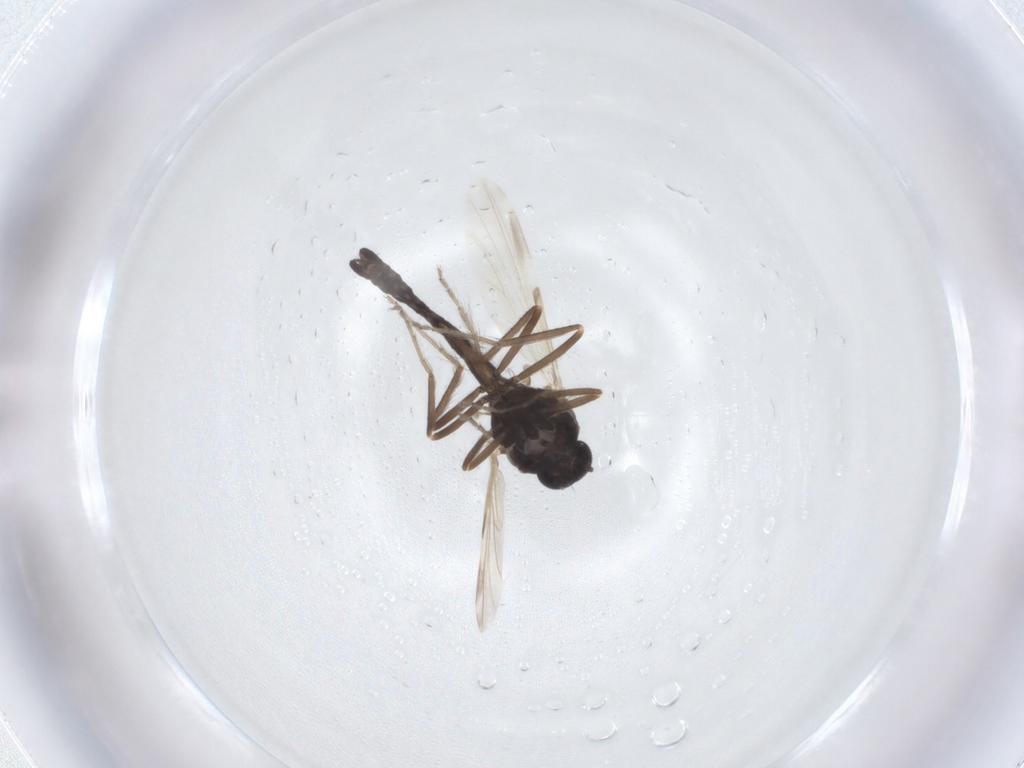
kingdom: Animalia
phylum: Arthropoda
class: Insecta
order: Diptera
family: Ceratopogonidae
